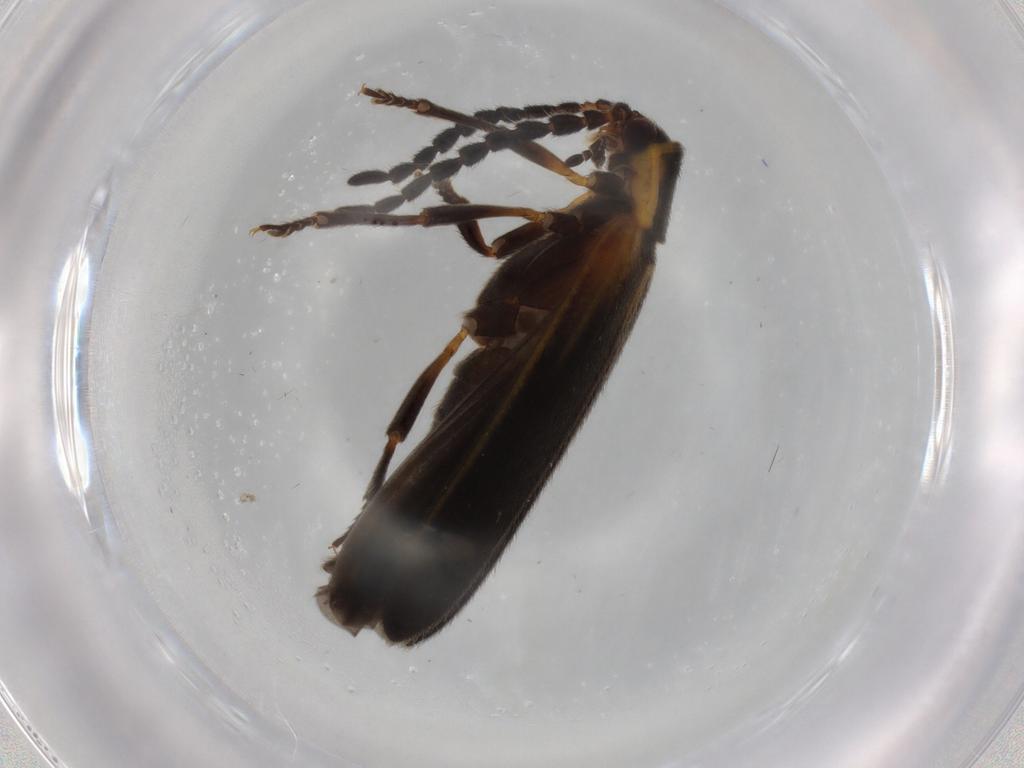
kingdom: Animalia
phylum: Arthropoda
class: Insecta
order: Coleoptera
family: Lycidae
